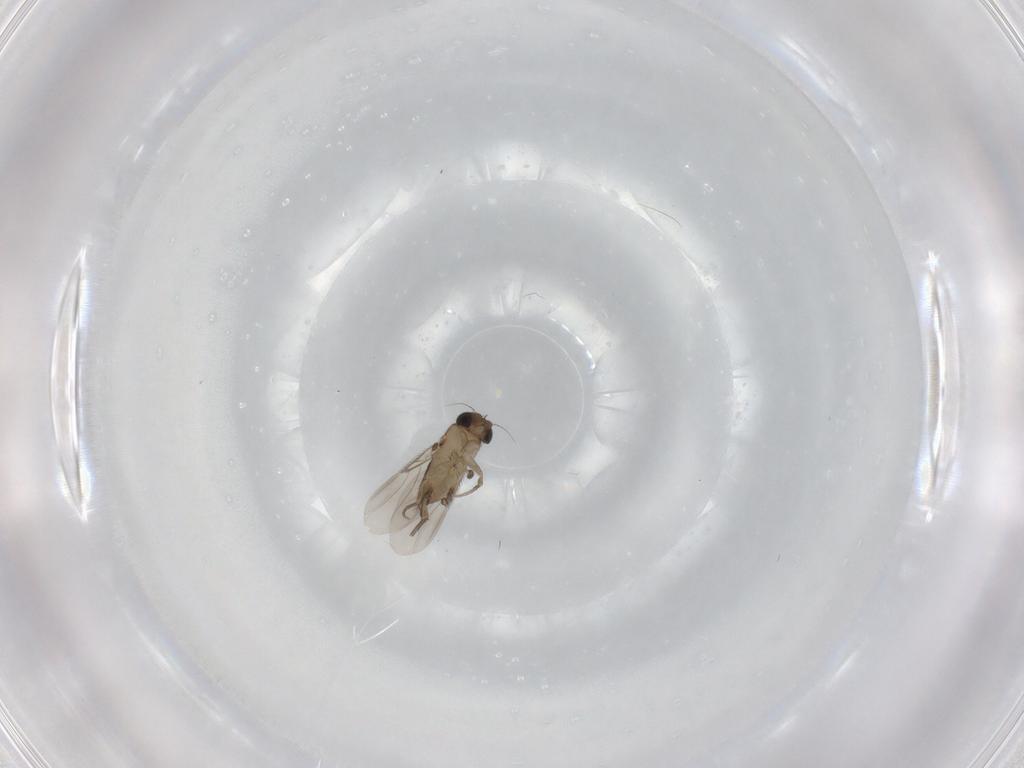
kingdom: Animalia
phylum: Arthropoda
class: Insecta
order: Diptera
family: Phoridae
